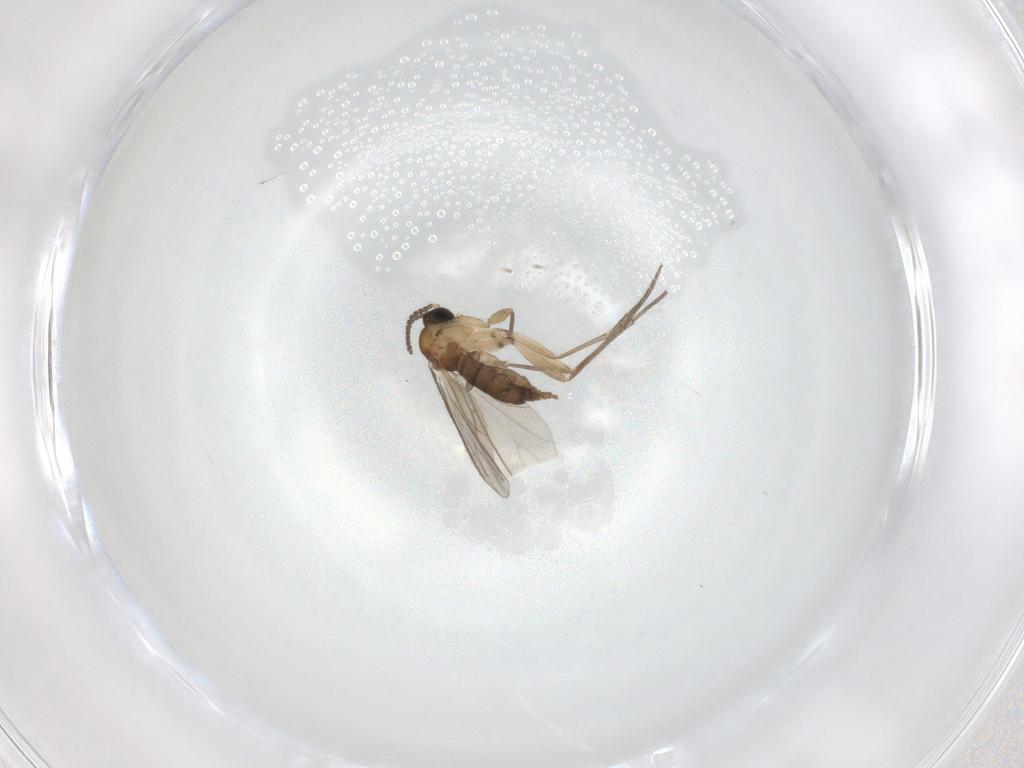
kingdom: Animalia
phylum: Arthropoda
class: Insecta
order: Diptera
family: Sciaridae
